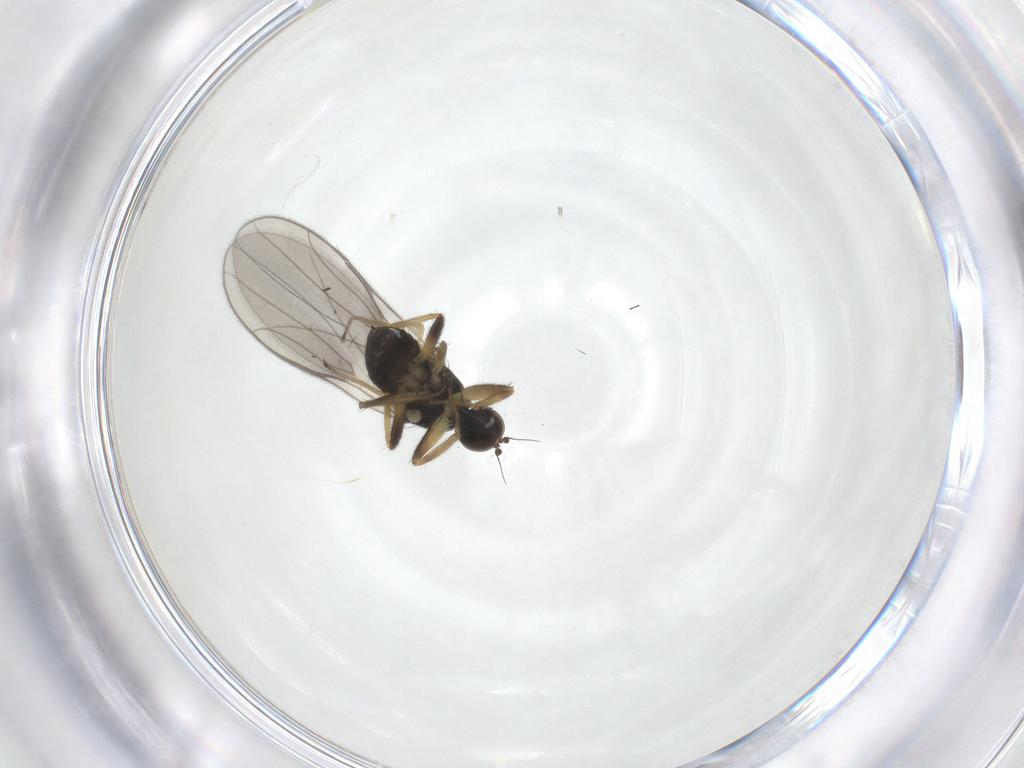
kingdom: Animalia
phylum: Arthropoda
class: Insecta
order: Diptera
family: Hybotidae
